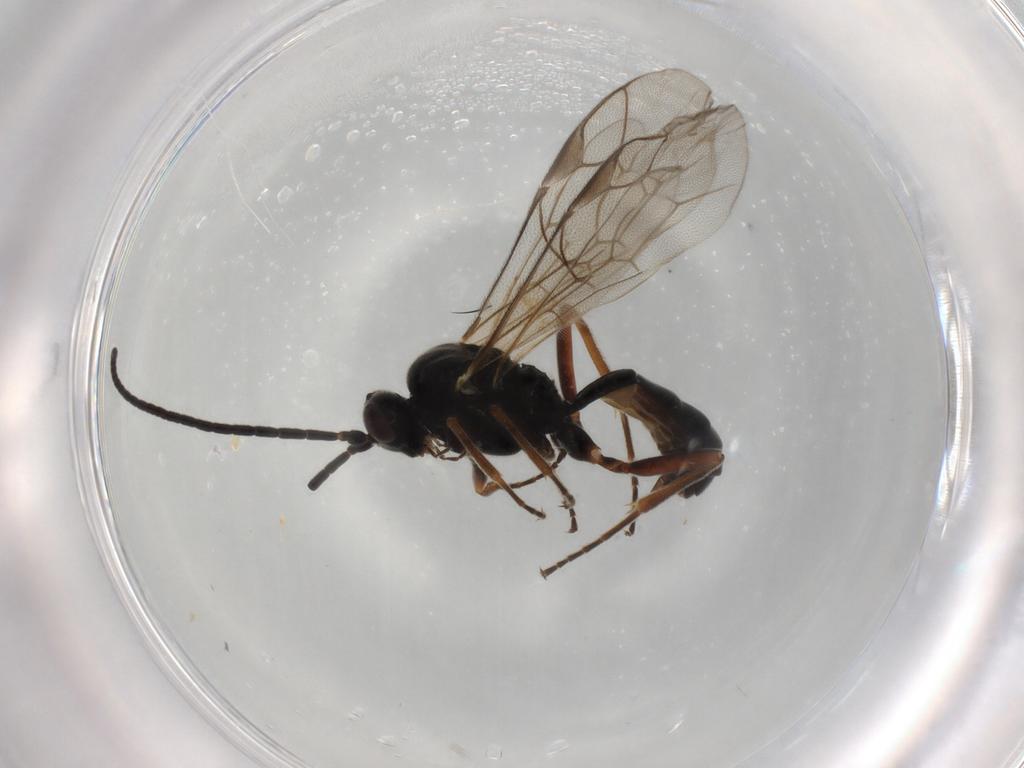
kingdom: Animalia
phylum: Arthropoda
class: Insecta
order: Hymenoptera
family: Ichneumonidae
